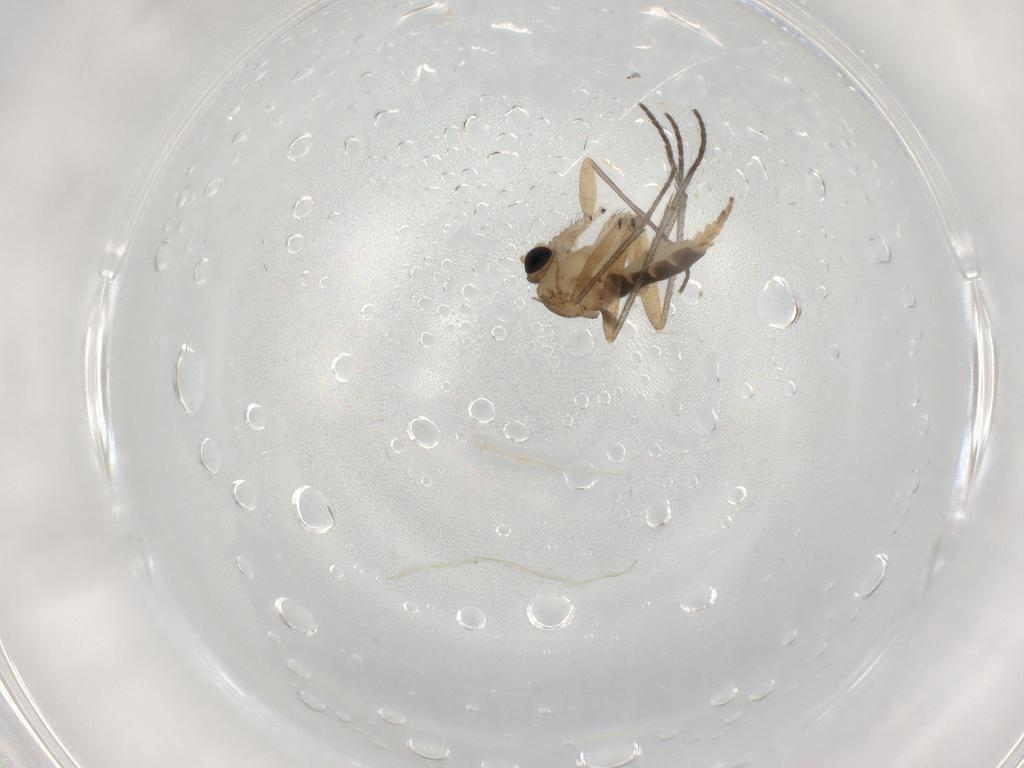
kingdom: Animalia
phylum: Arthropoda
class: Insecta
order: Diptera
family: Sciaridae
